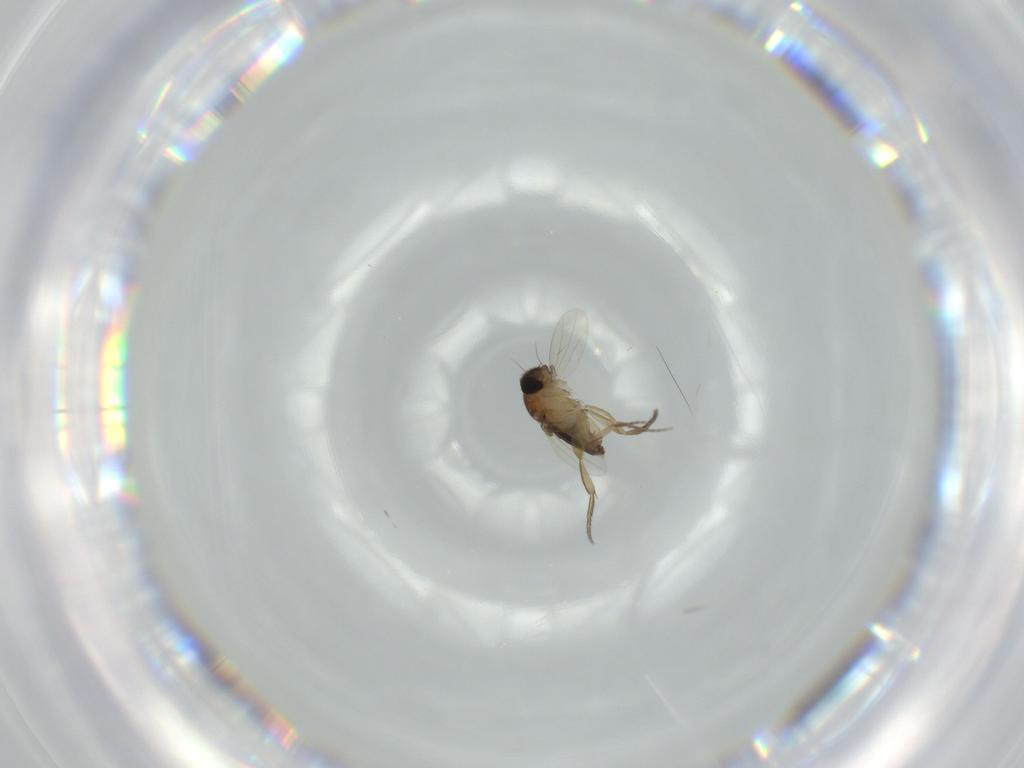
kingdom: Animalia
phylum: Arthropoda
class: Insecta
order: Diptera
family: Phoridae
